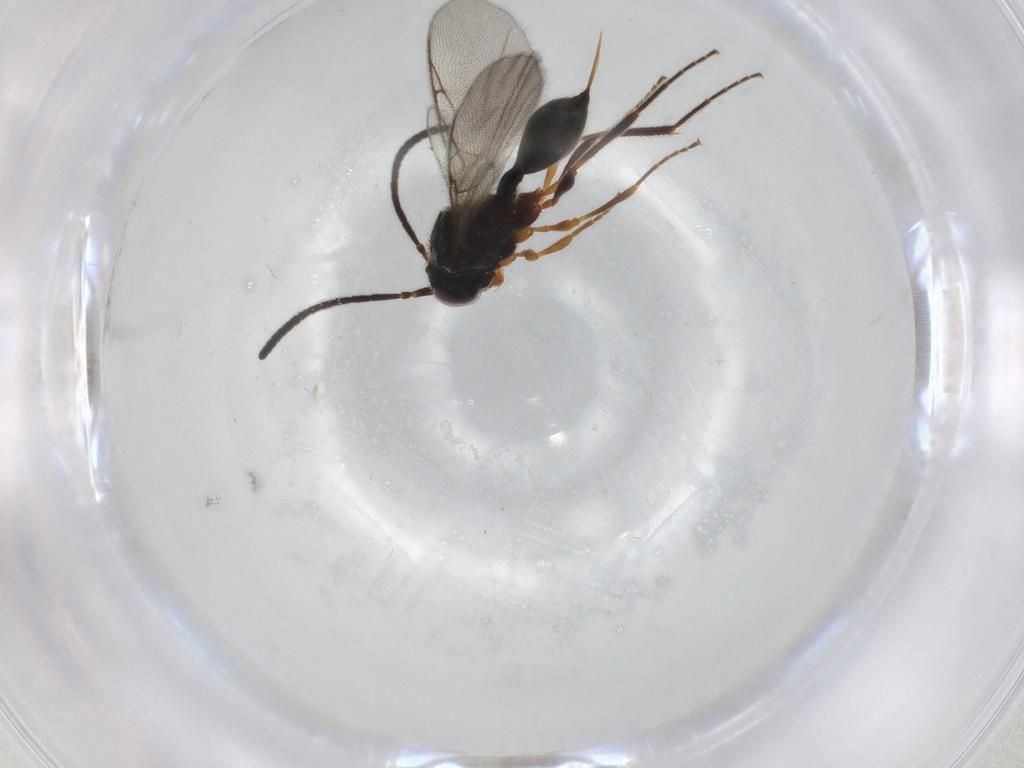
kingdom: Animalia
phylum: Arthropoda
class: Insecta
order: Hymenoptera
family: Diapriidae
